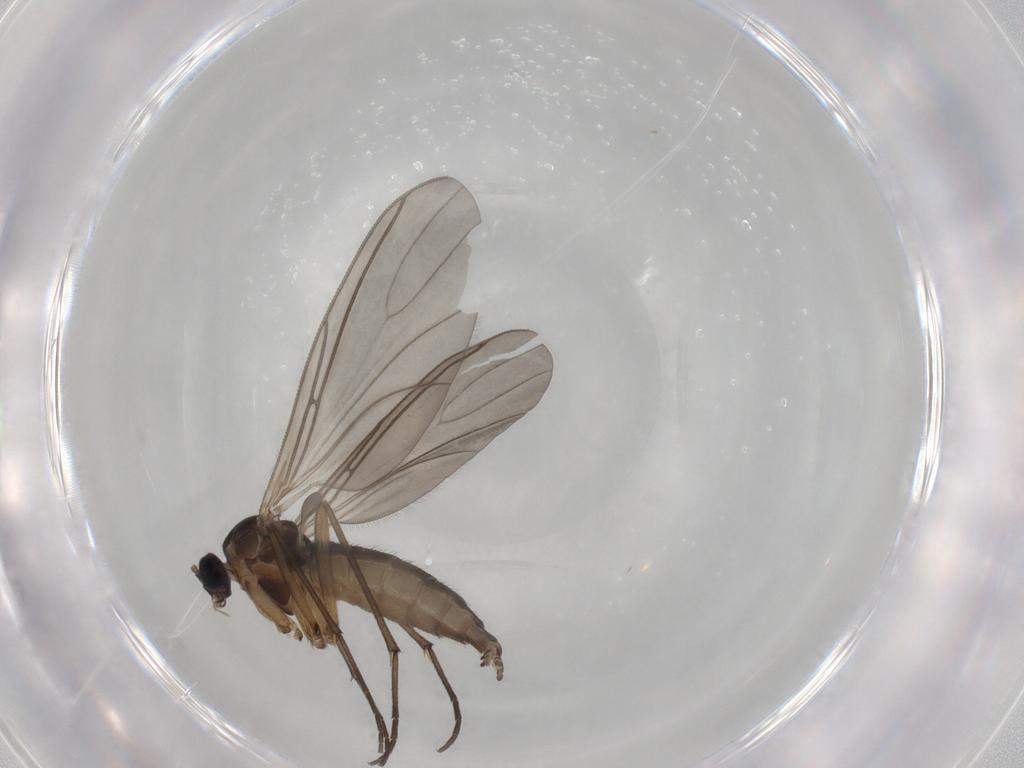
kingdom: Animalia
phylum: Arthropoda
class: Insecta
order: Diptera
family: Sciaridae
